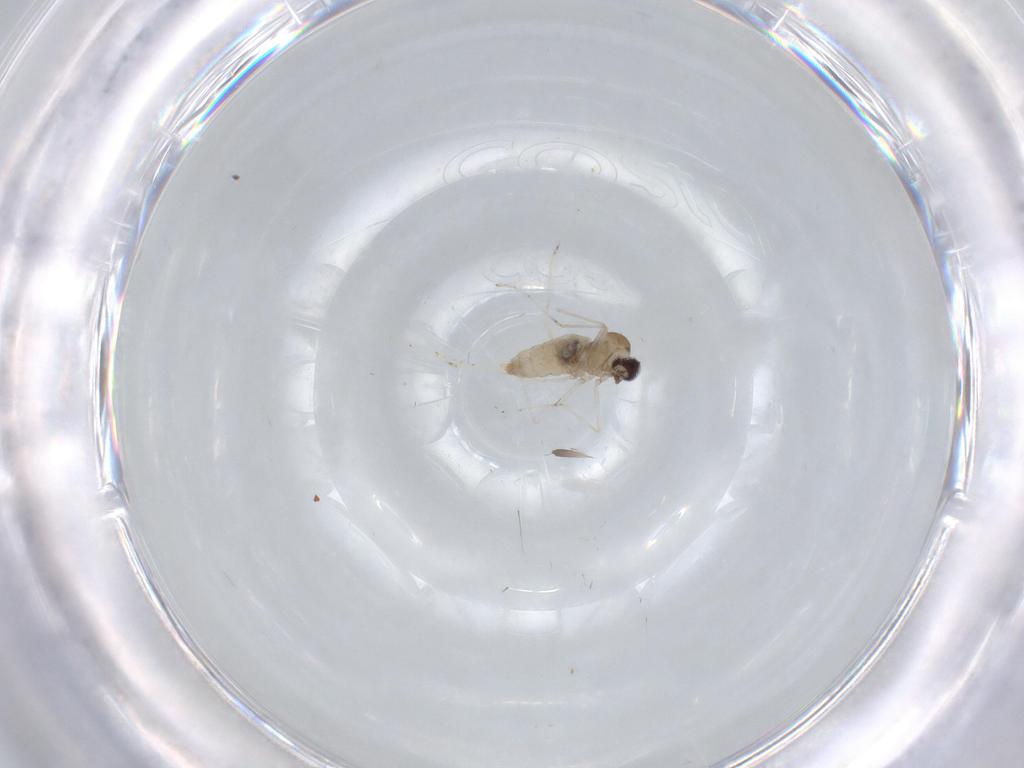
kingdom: Animalia
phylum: Arthropoda
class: Insecta
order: Diptera
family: Cecidomyiidae
